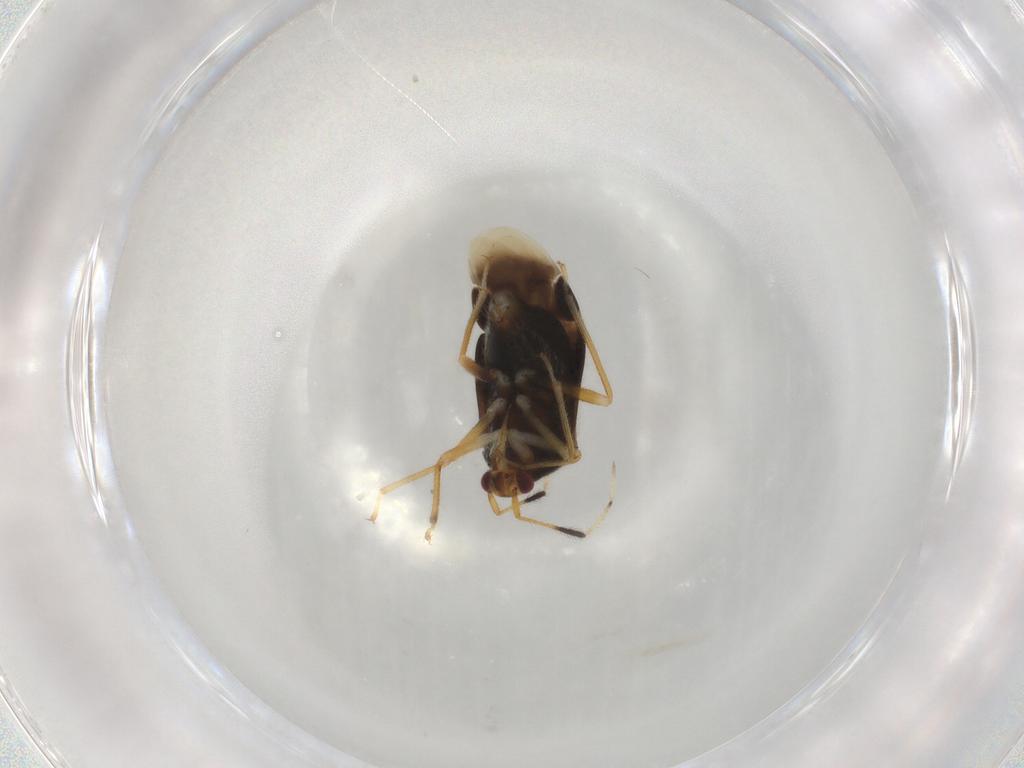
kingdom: Animalia
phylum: Arthropoda
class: Insecta
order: Hemiptera
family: Miridae
